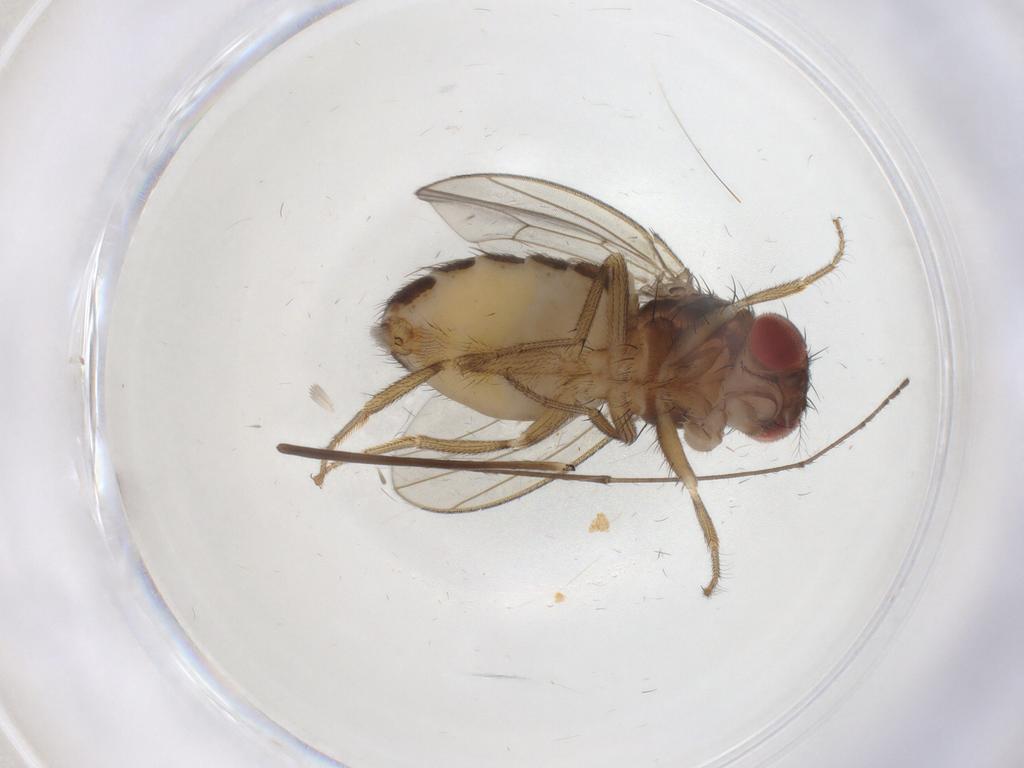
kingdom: Animalia
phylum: Arthropoda
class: Insecta
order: Diptera
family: Drosophilidae
